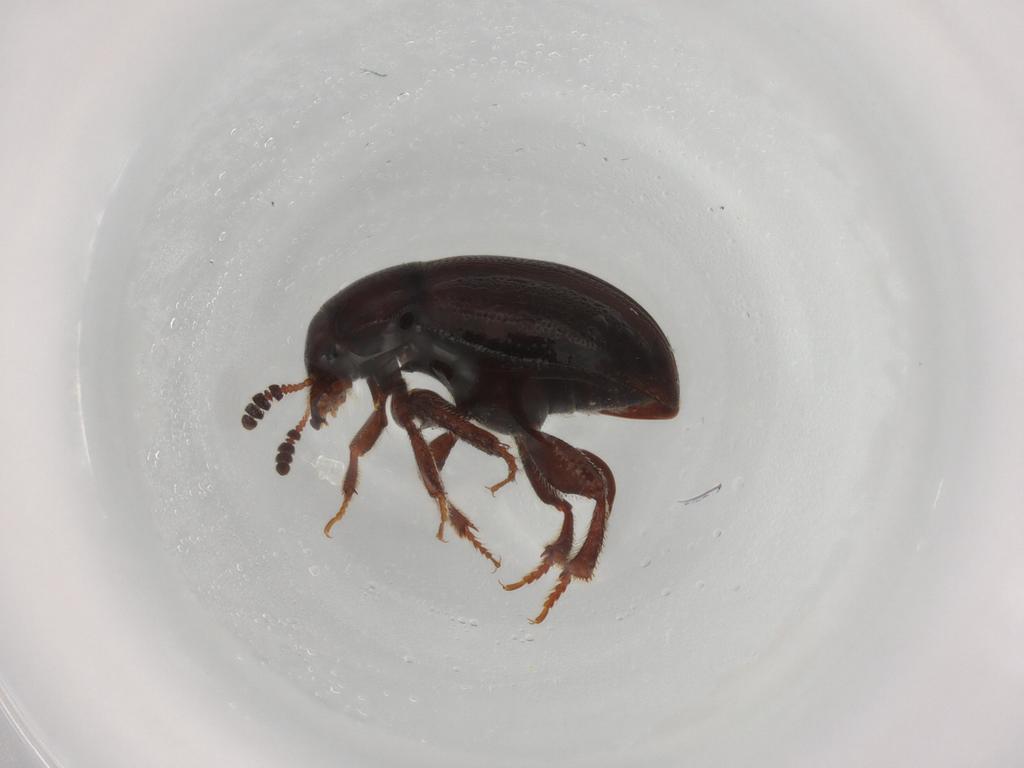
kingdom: Animalia
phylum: Arthropoda
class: Insecta
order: Coleoptera
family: Leiodidae
